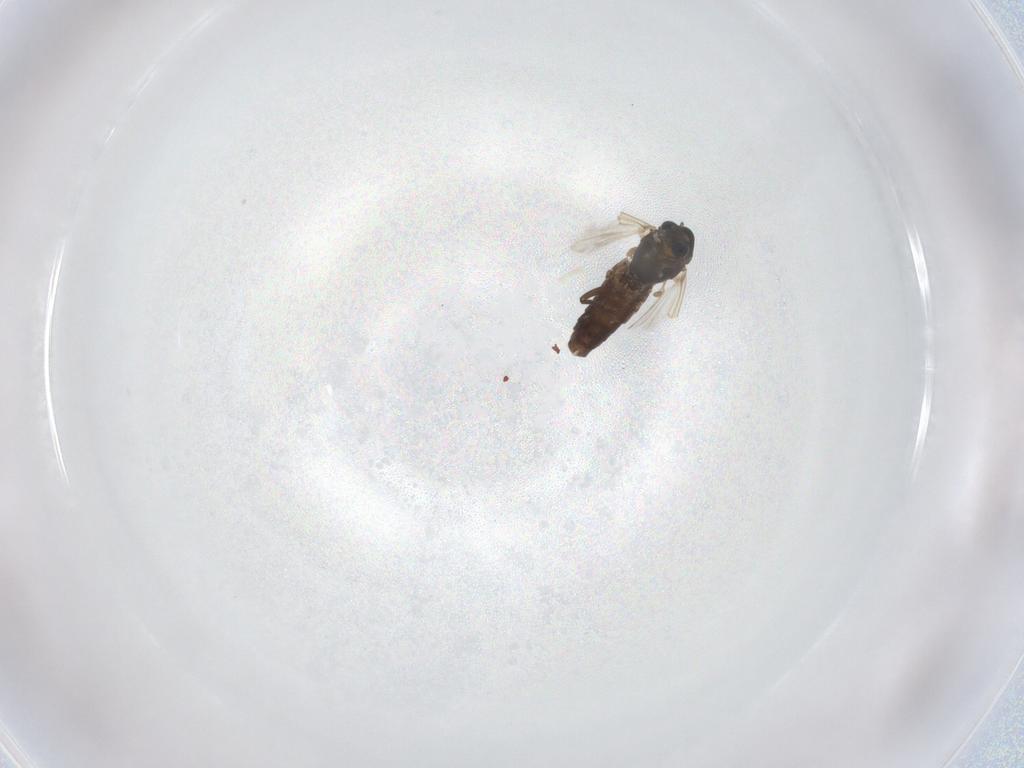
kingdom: Animalia
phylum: Arthropoda
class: Insecta
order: Diptera
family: Chironomidae
